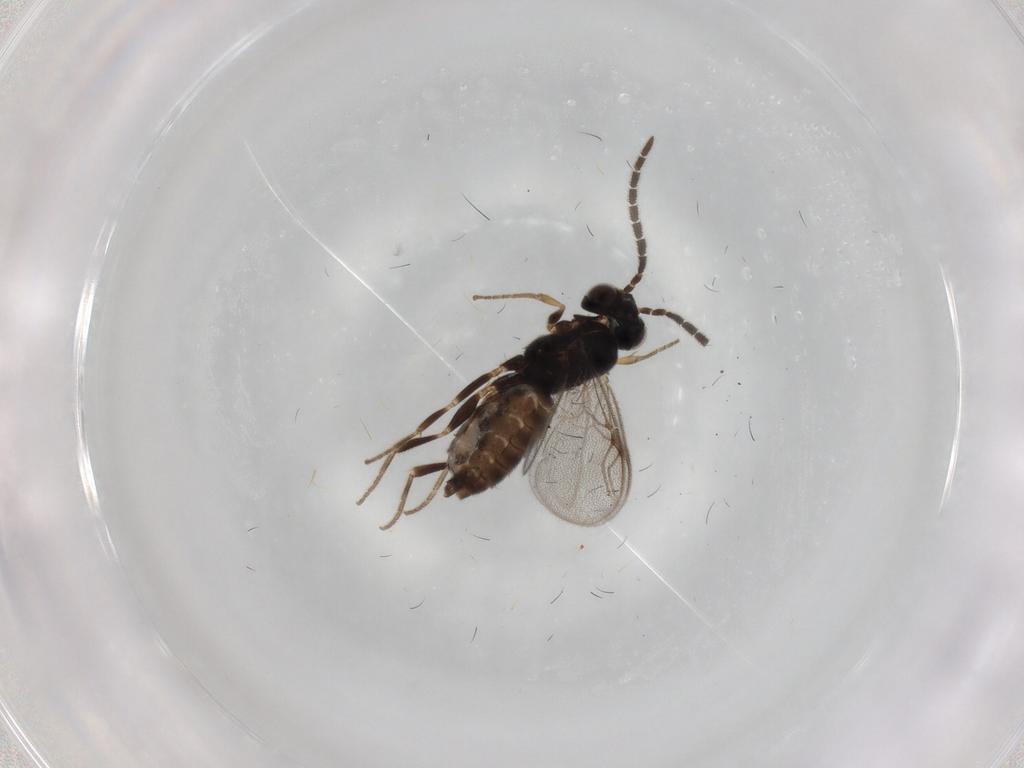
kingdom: Animalia
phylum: Arthropoda
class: Insecta
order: Hymenoptera
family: Dryinidae
